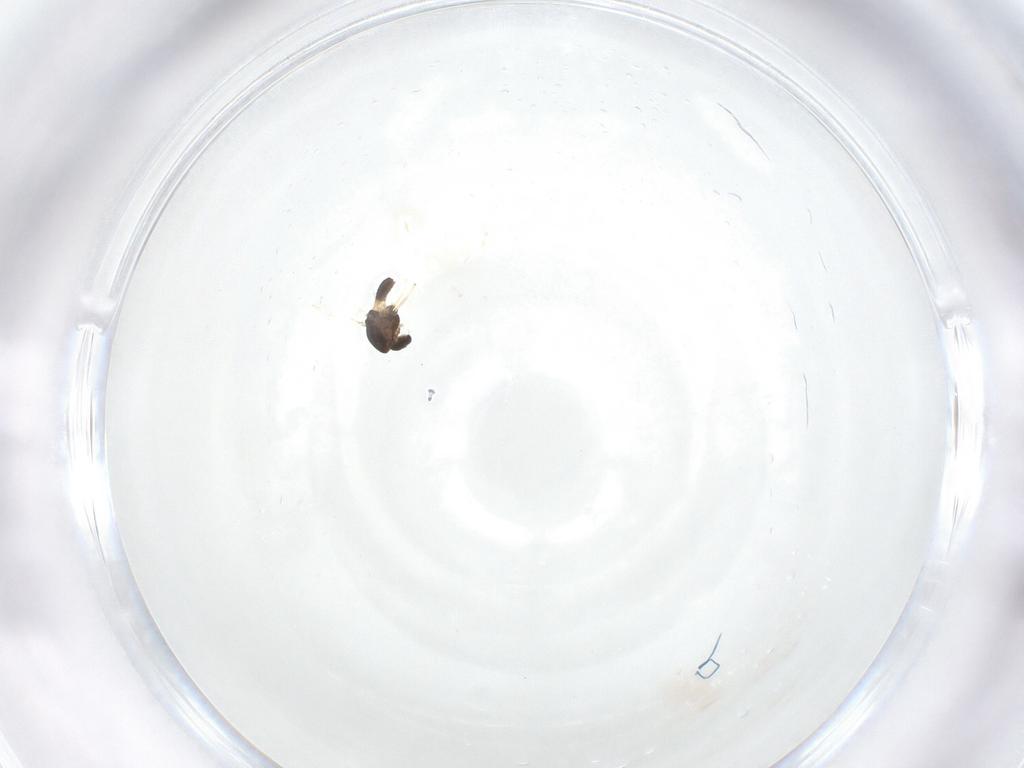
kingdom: Animalia
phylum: Arthropoda
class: Insecta
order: Diptera
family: Chironomidae
